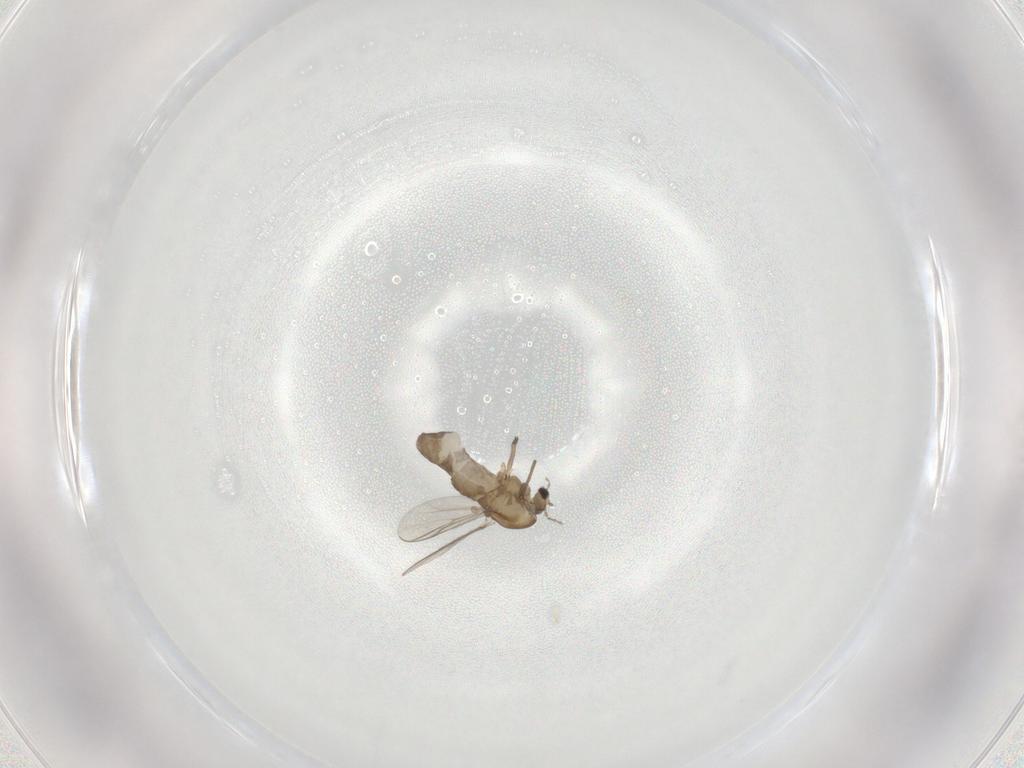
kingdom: Animalia
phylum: Arthropoda
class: Insecta
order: Diptera
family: Chironomidae
